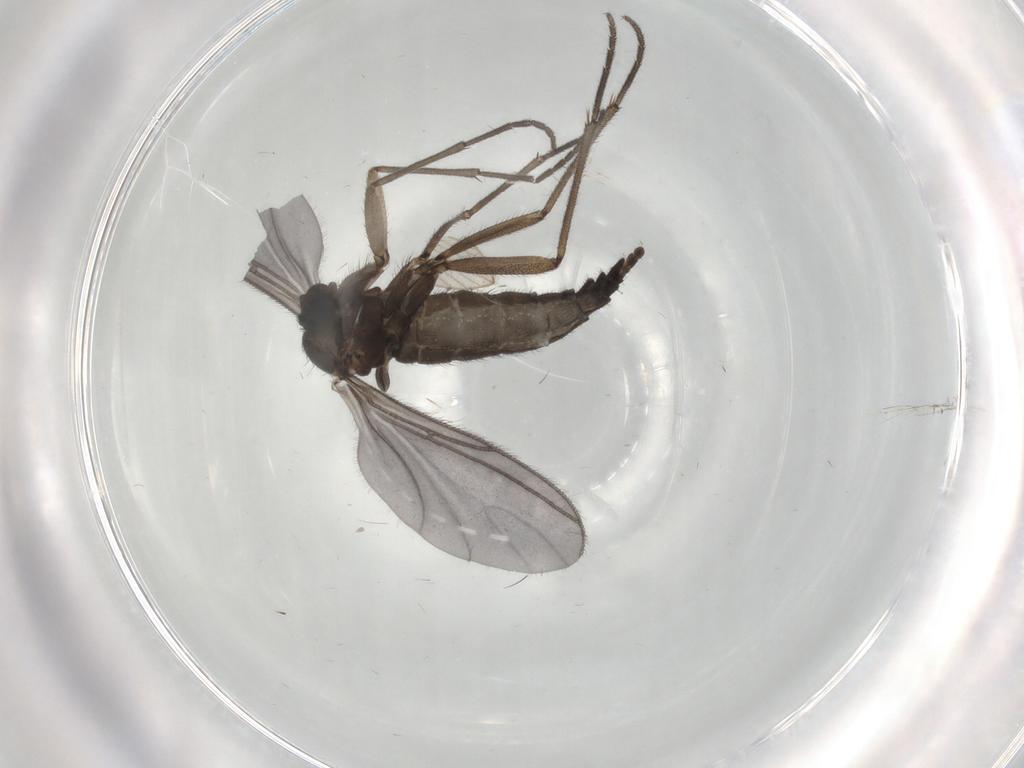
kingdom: Animalia
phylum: Arthropoda
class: Insecta
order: Diptera
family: Sciaridae
